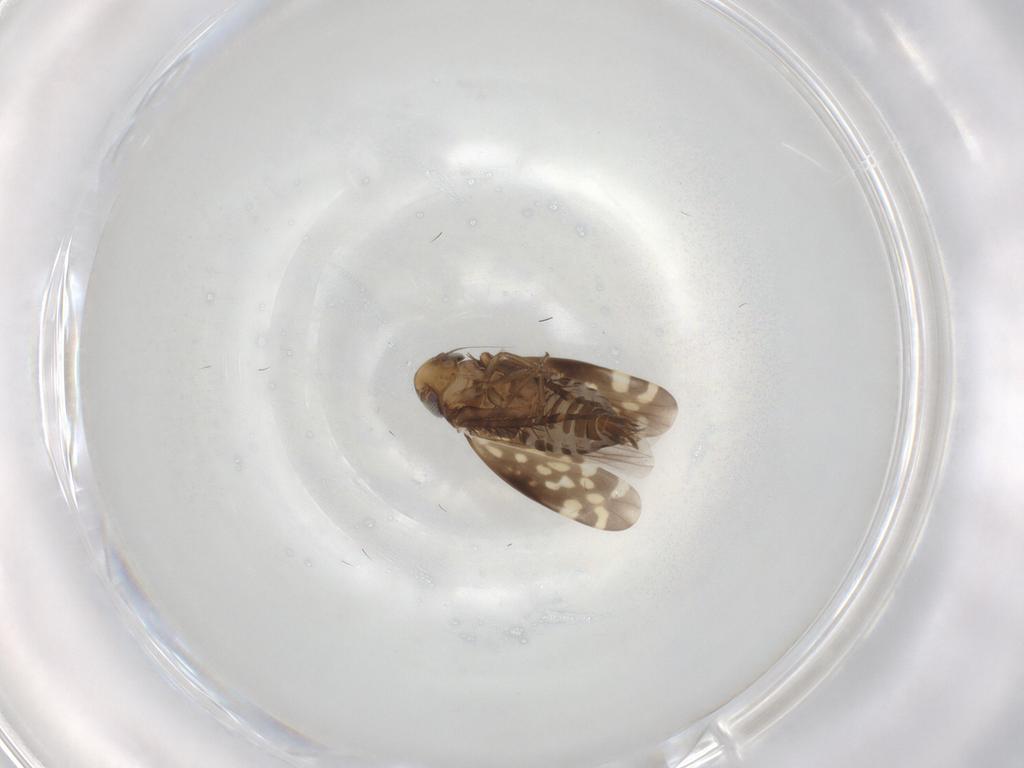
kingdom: Animalia
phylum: Arthropoda
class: Insecta
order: Hemiptera
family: Cicadellidae
